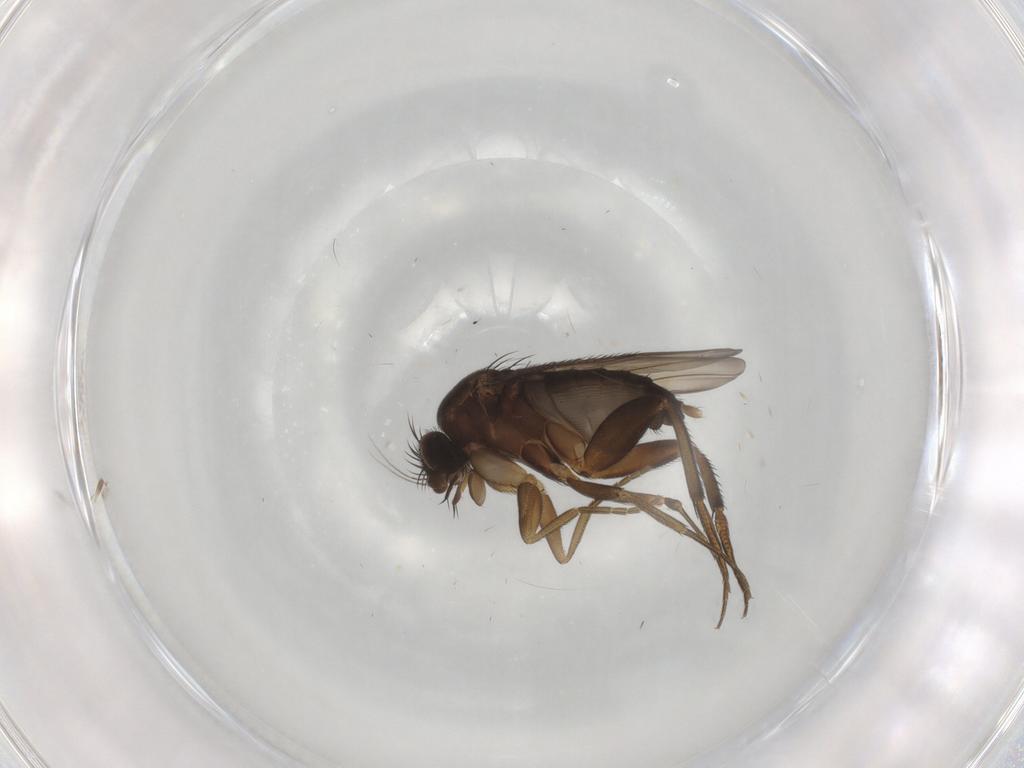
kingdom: Animalia
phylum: Arthropoda
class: Insecta
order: Diptera
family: Phoridae
